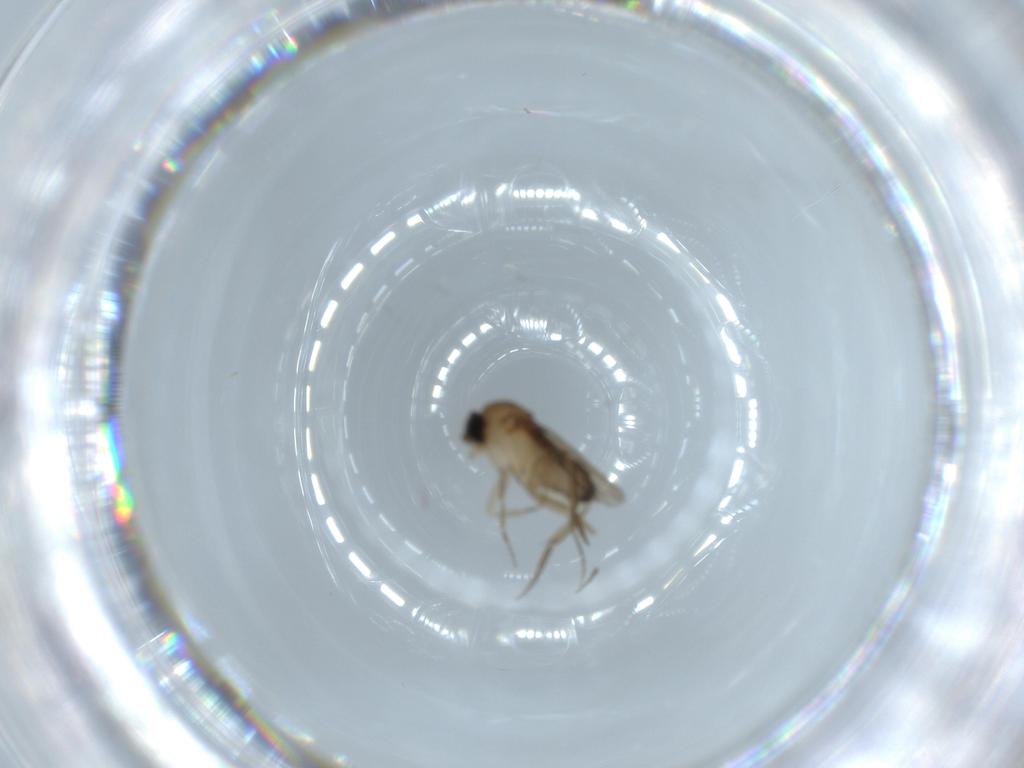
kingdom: Animalia
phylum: Arthropoda
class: Insecta
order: Diptera
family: Phoridae
